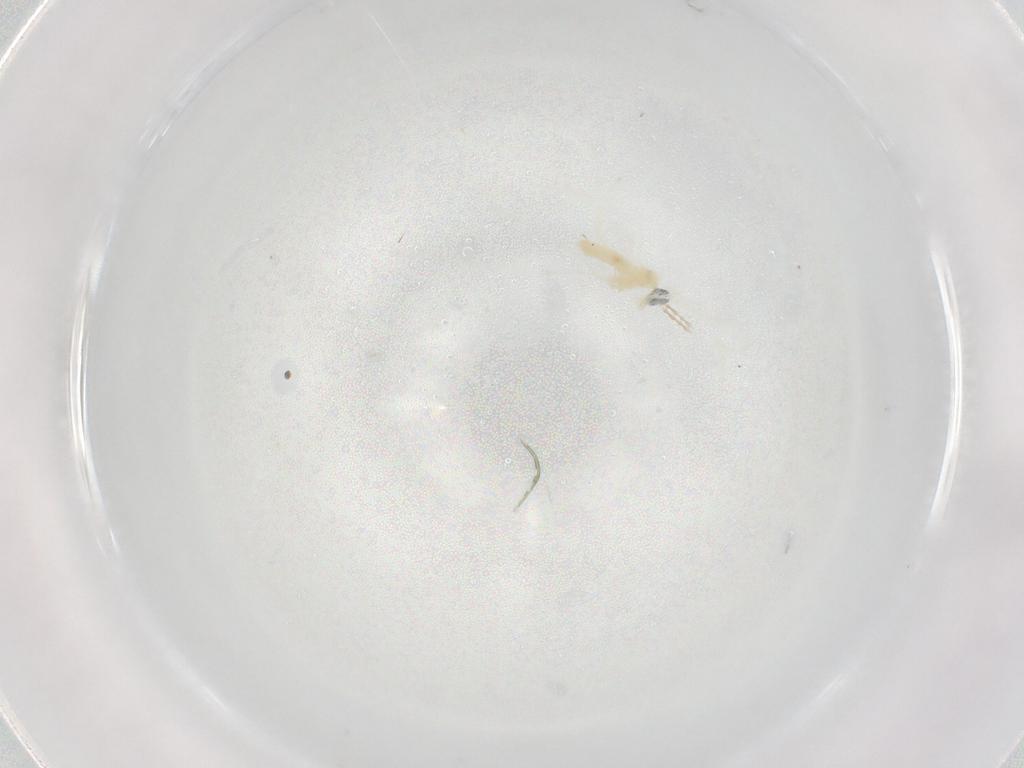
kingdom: Animalia
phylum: Arthropoda
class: Insecta
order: Diptera
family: Cecidomyiidae
